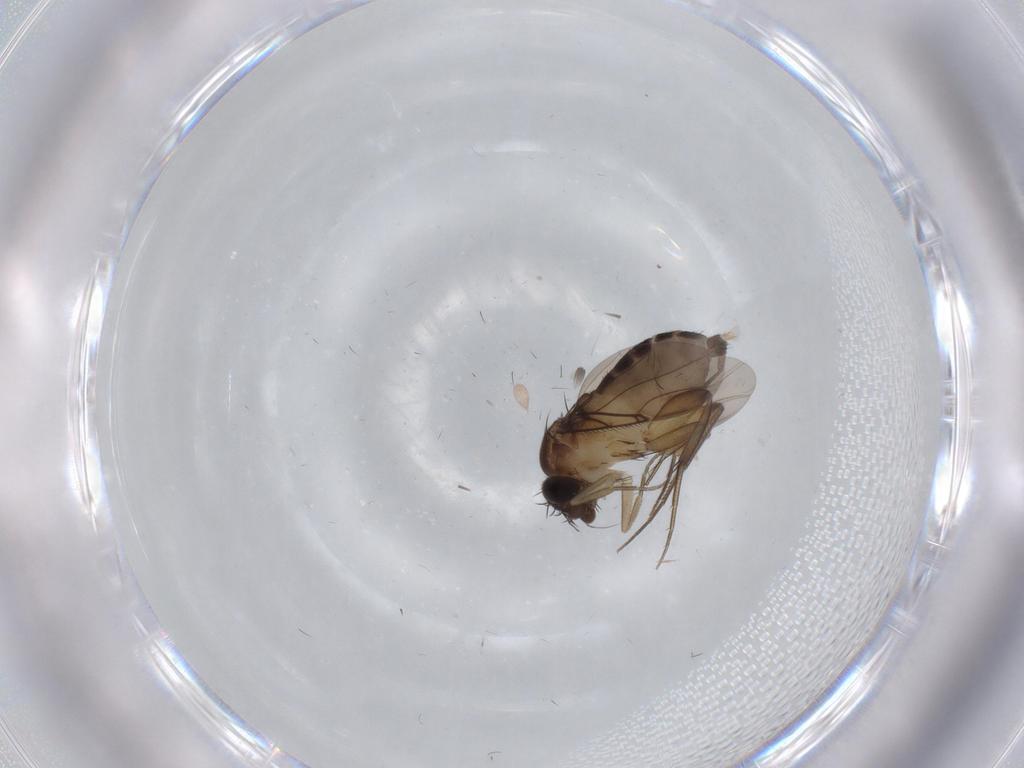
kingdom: Animalia
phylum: Arthropoda
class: Insecta
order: Diptera
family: Phoridae
